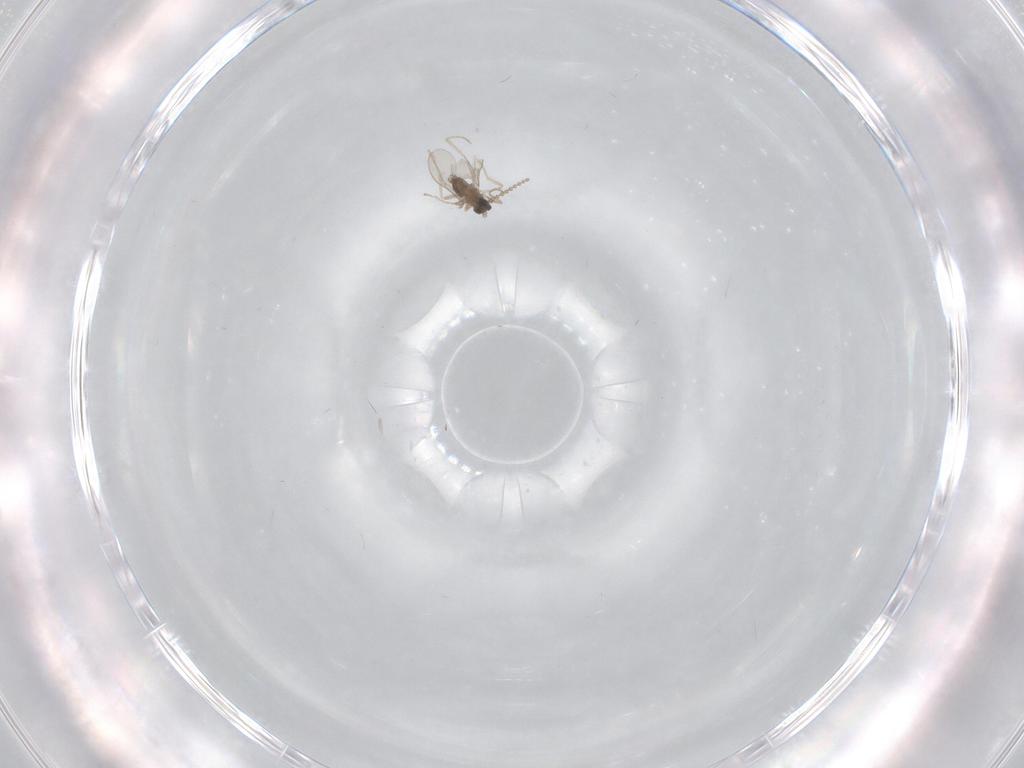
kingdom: Animalia
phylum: Arthropoda
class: Insecta
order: Diptera
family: Cecidomyiidae
